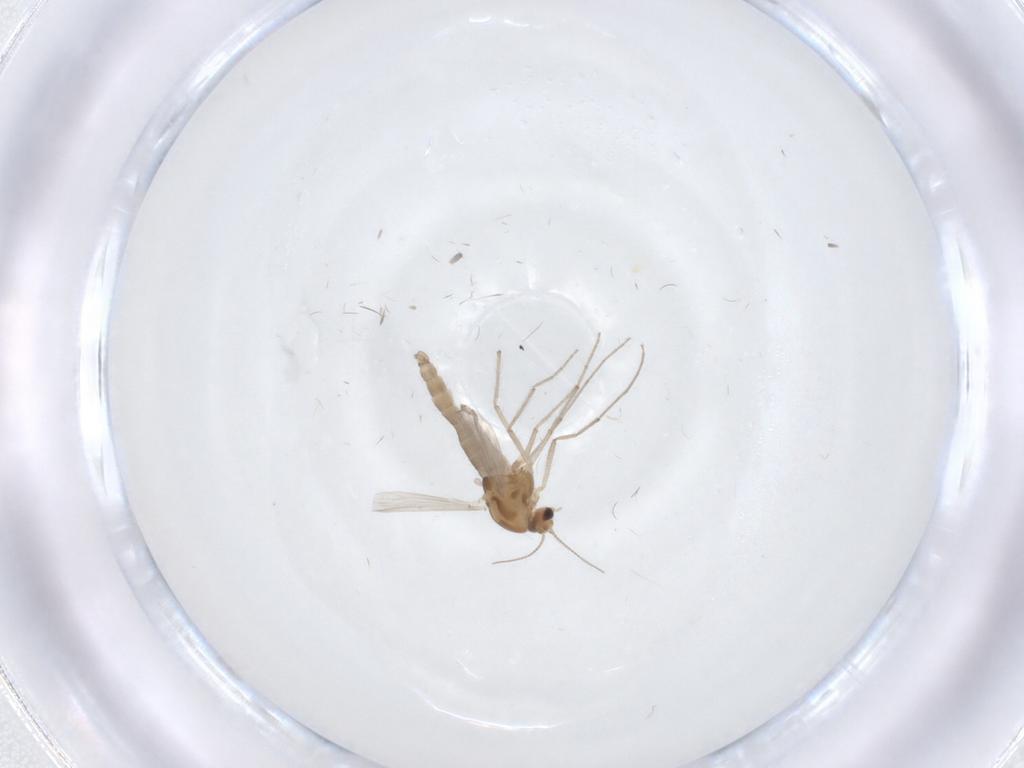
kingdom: Animalia
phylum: Arthropoda
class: Insecta
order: Diptera
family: Chironomidae
